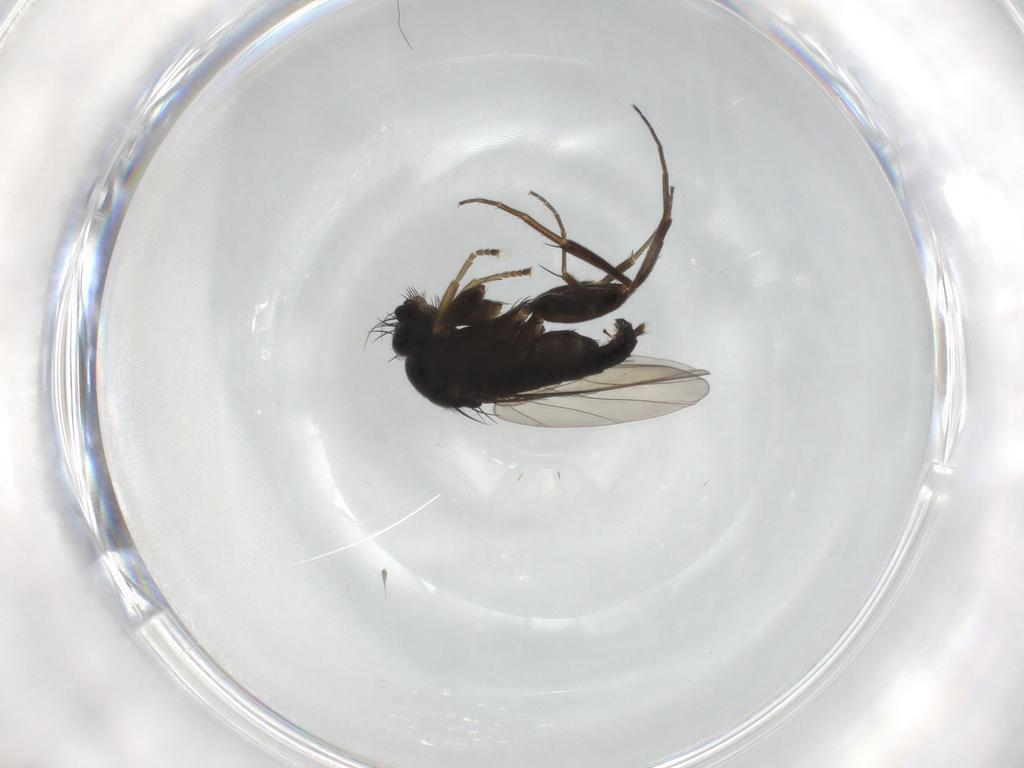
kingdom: Animalia
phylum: Arthropoda
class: Insecta
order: Diptera
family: Phoridae
